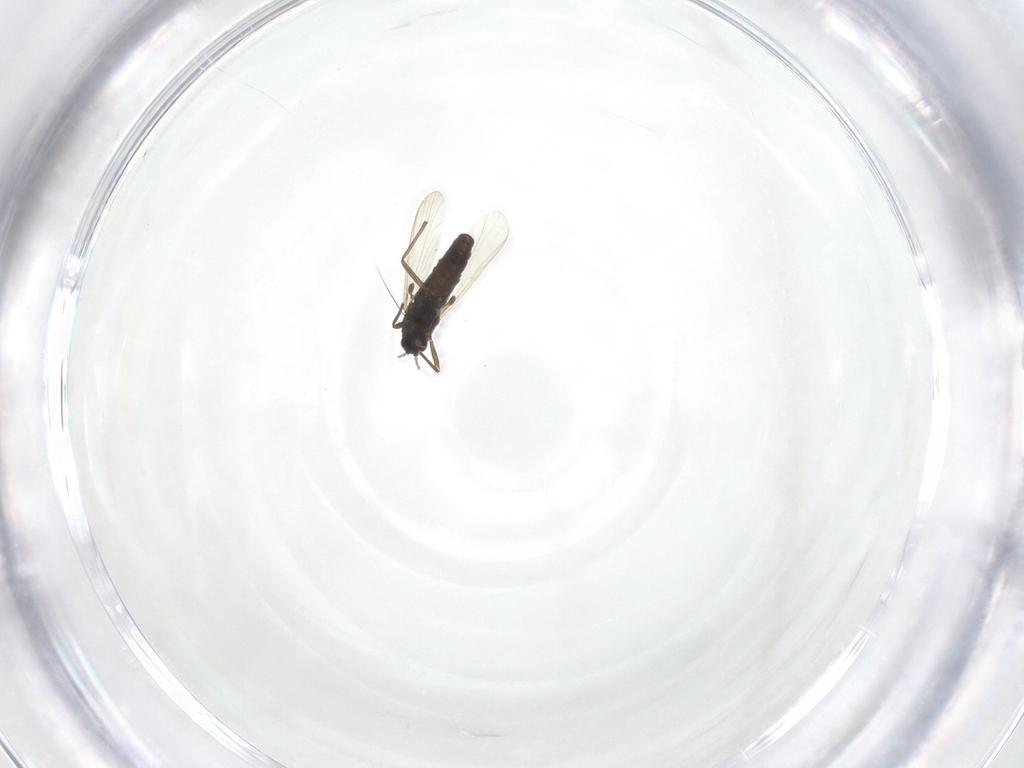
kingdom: Animalia
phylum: Arthropoda
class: Insecta
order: Diptera
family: Chironomidae
